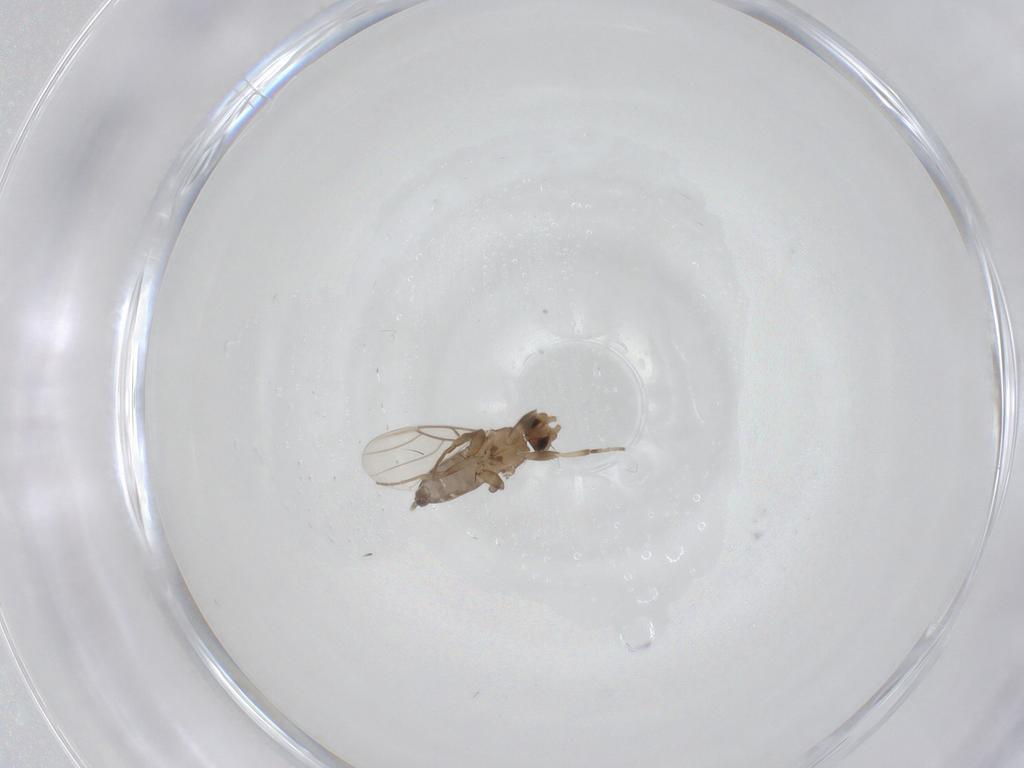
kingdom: Animalia
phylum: Arthropoda
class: Insecta
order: Diptera
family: Phoridae
